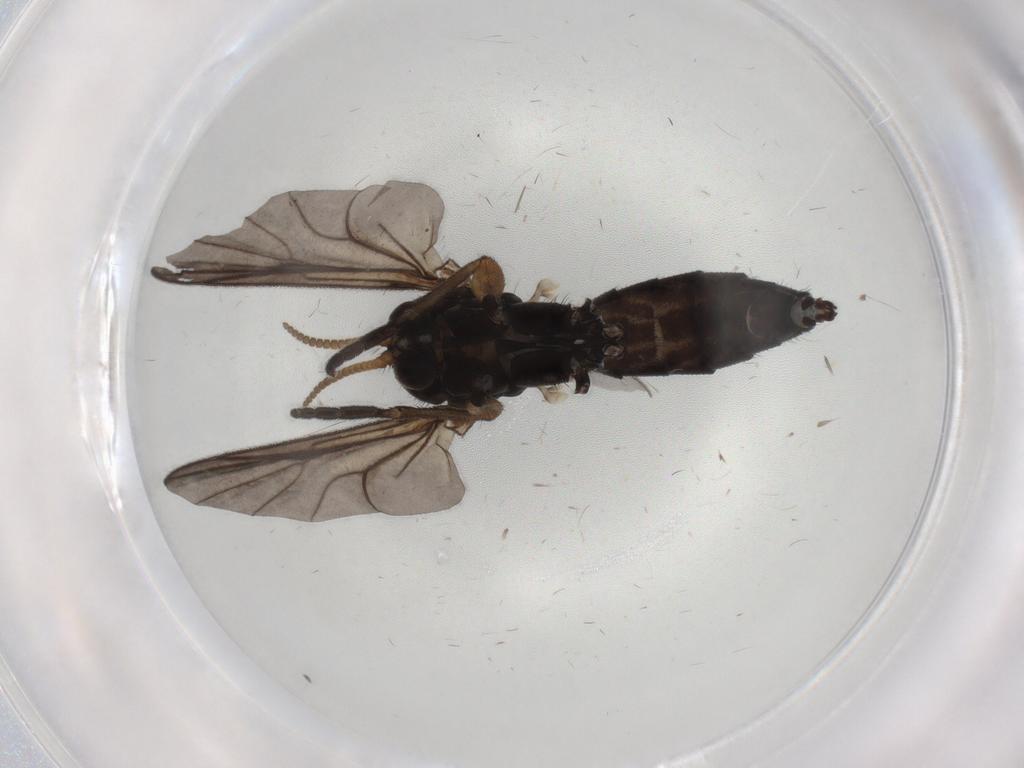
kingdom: Animalia
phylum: Arthropoda
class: Insecta
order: Diptera
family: Mycetophilidae
